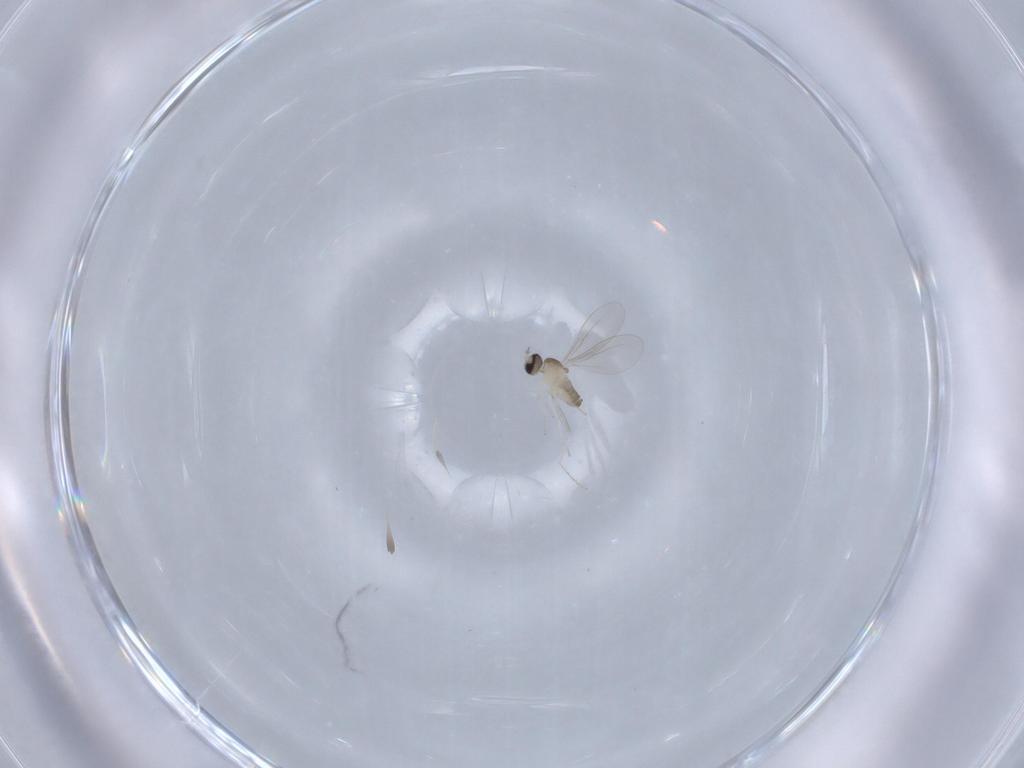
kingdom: Animalia
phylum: Arthropoda
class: Insecta
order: Diptera
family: Cecidomyiidae
